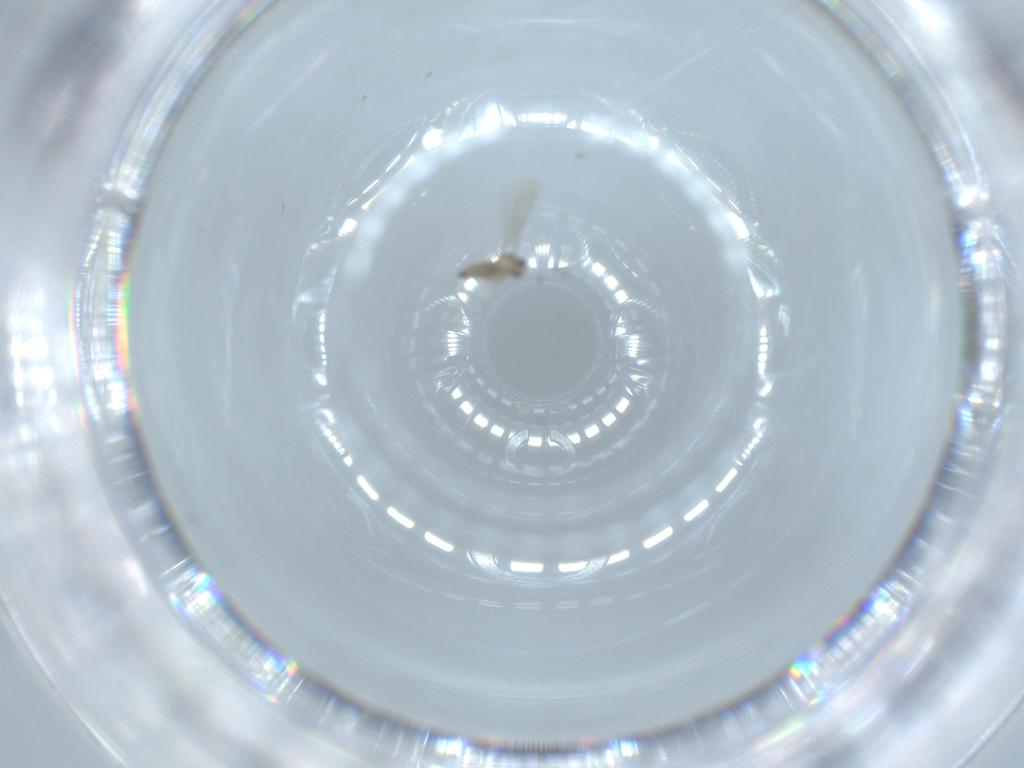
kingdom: Animalia
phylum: Arthropoda
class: Insecta
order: Diptera
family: Cecidomyiidae
